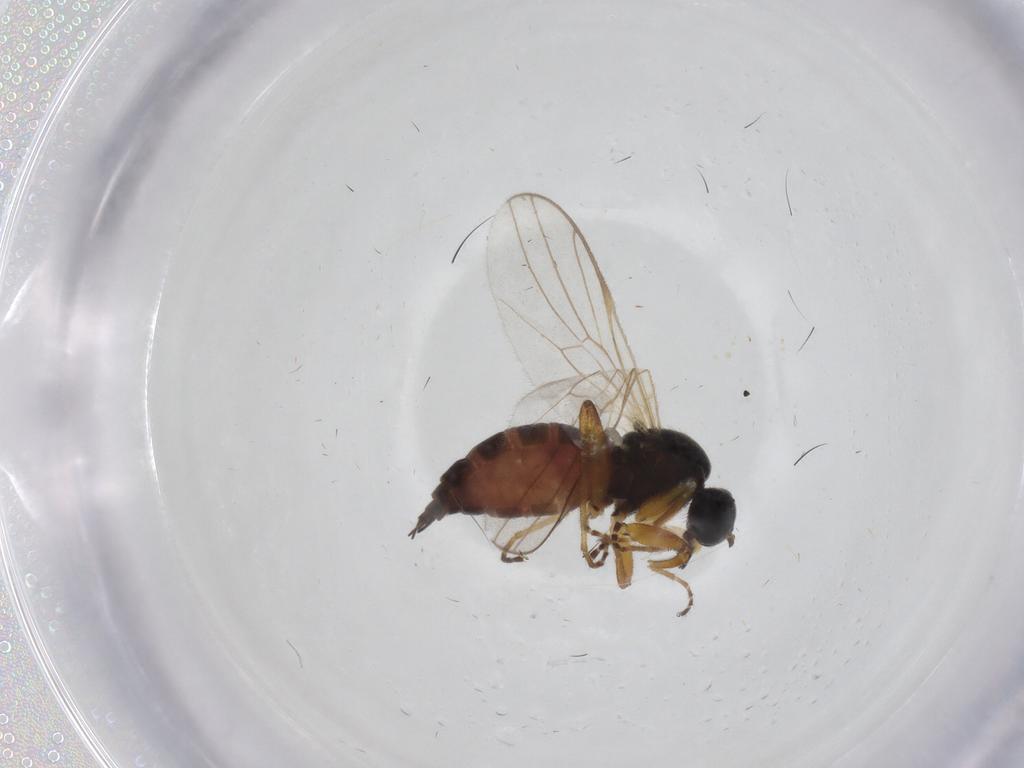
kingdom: Animalia
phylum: Arthropoda
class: Insecta
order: Diptera
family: Hybotidae
